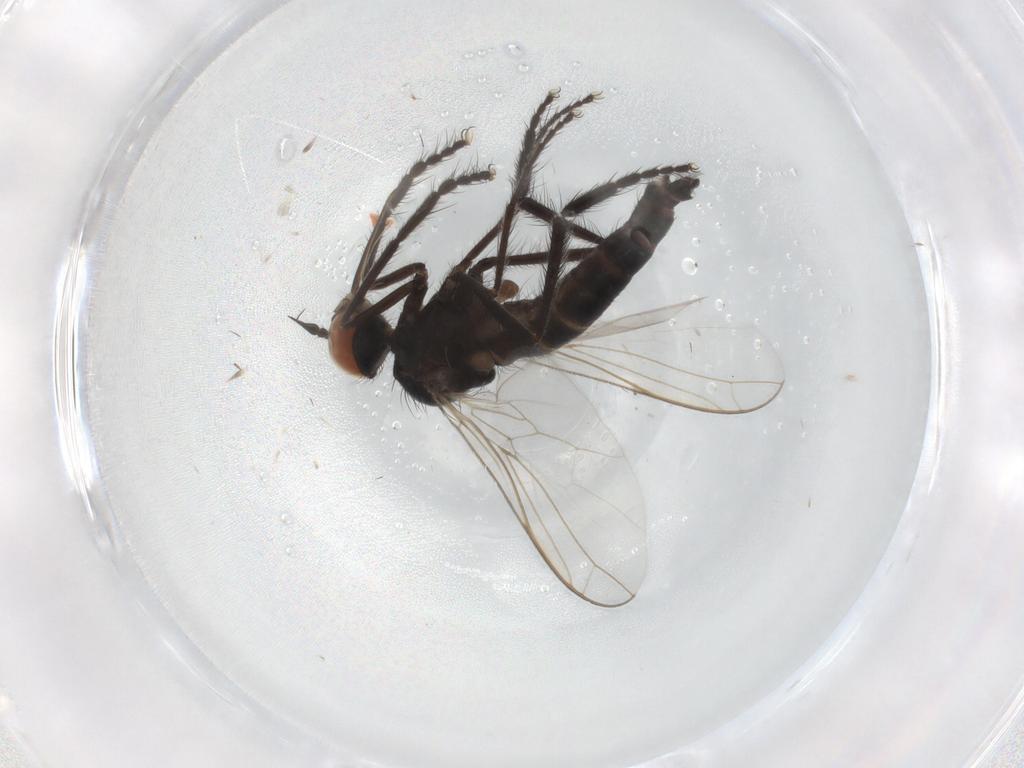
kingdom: Animalia
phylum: Arthropoda
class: Insecta
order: Diptera
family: Empididae
